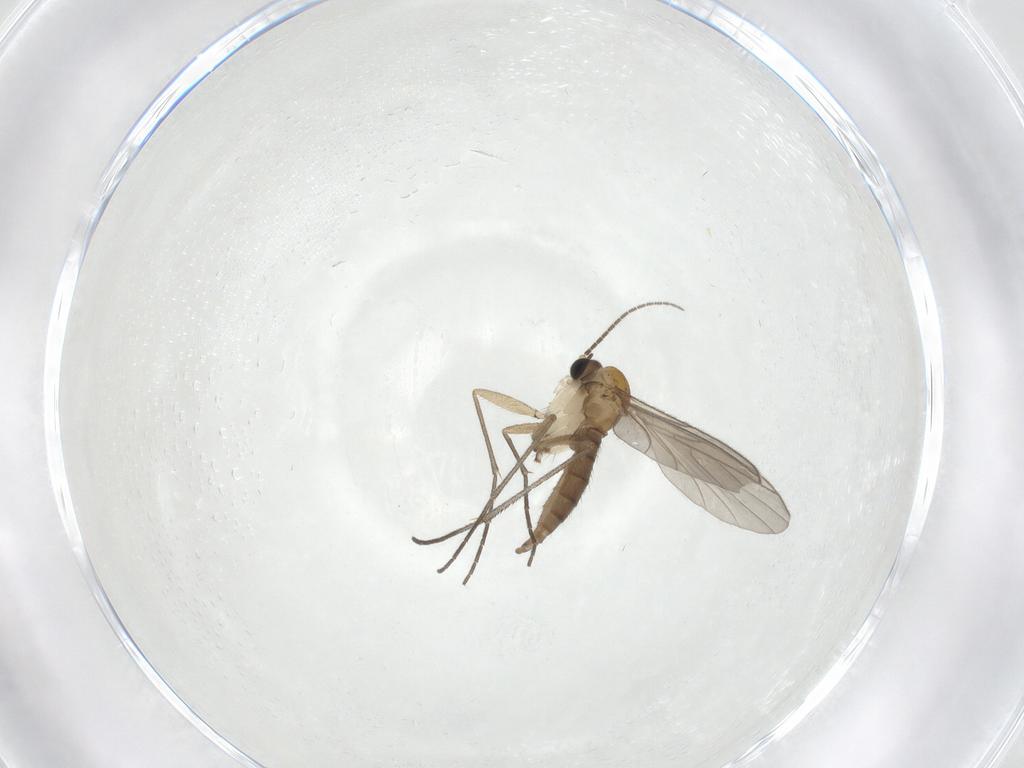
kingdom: Animalia
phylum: Arthropoda
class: Insecta
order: Diptera
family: Sciaridae
